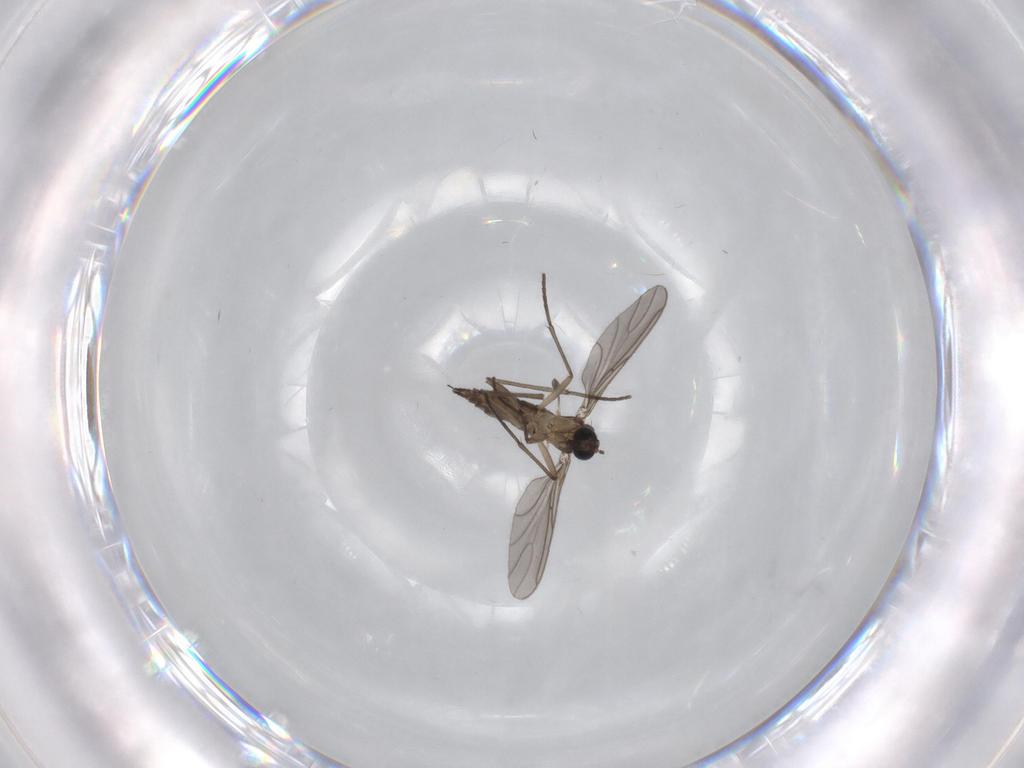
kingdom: Animalia
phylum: Arthropoda
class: Insecta
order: Diptera
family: Sciaridae
